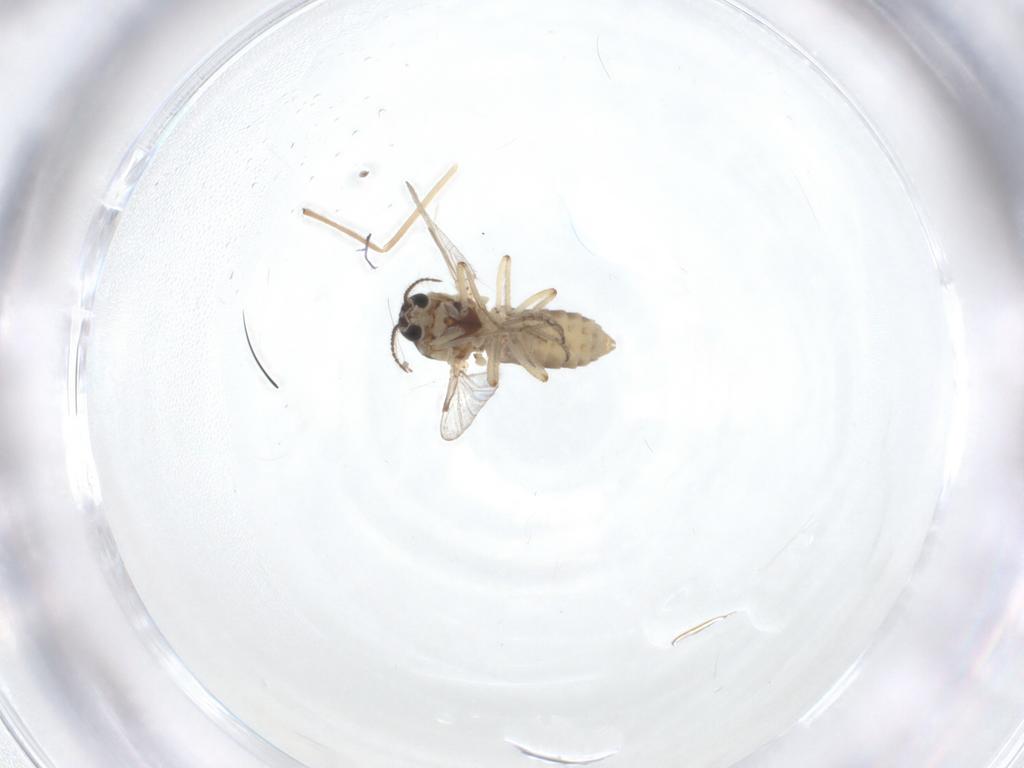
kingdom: Animalia
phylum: Arthropoda
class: Insecta
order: Diptera
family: Ceratopogonidae
